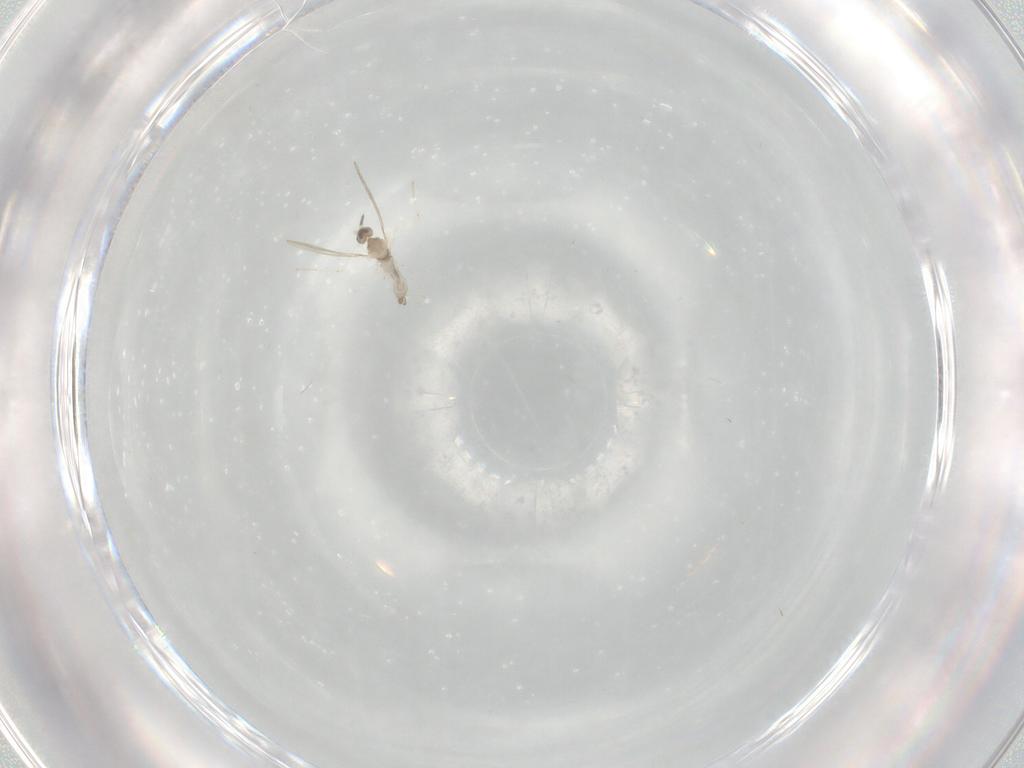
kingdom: Animalia
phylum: Arthropoda
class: Insecta
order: Diptera
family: Cecidomyiidae
